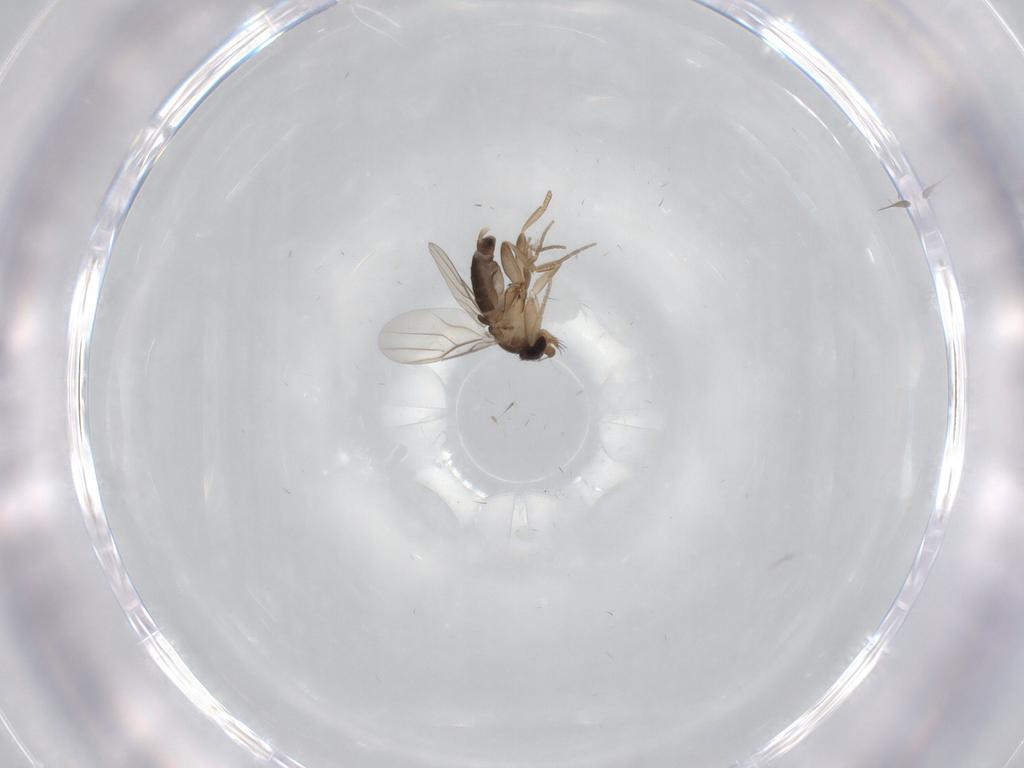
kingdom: Animalia
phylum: Arthropoda
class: Insecta
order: Diptera
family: Phoridae
